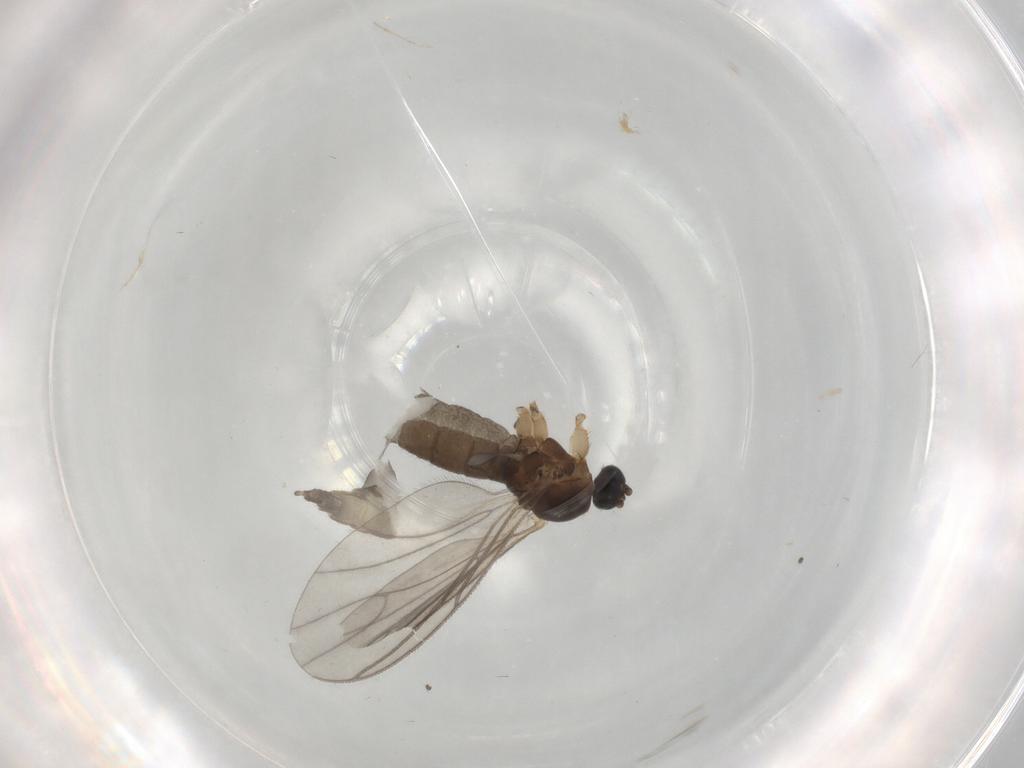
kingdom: Animalia
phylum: Arthropoda
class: Insecta
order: Diptera
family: Sciaridae
